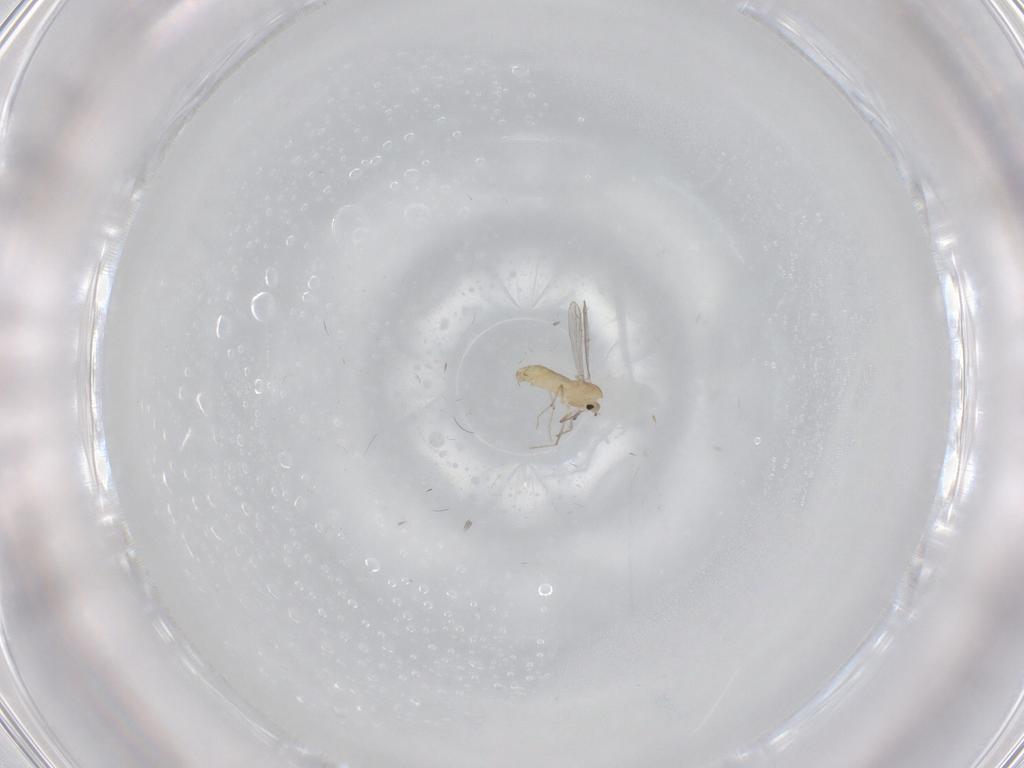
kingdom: Animalia
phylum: Arthropoda
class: Insecta
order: Diptera
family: Chironomidae
